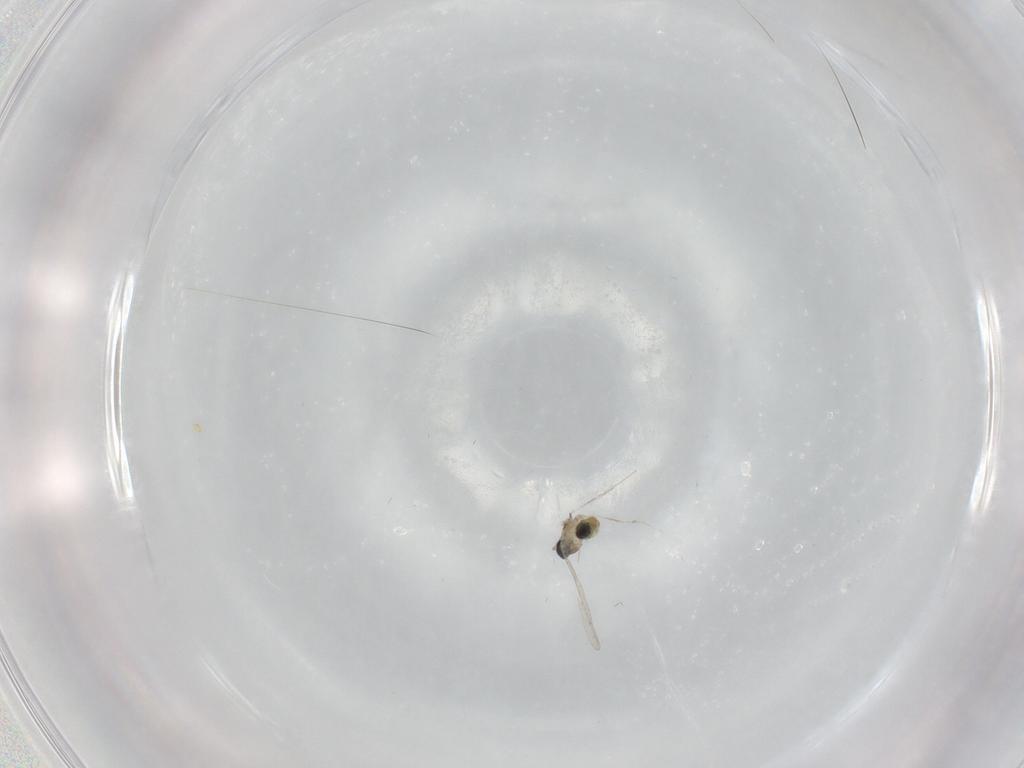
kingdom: Animalia
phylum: Arthropoda
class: Insecta
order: Diptera
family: Cecidomyiidae
